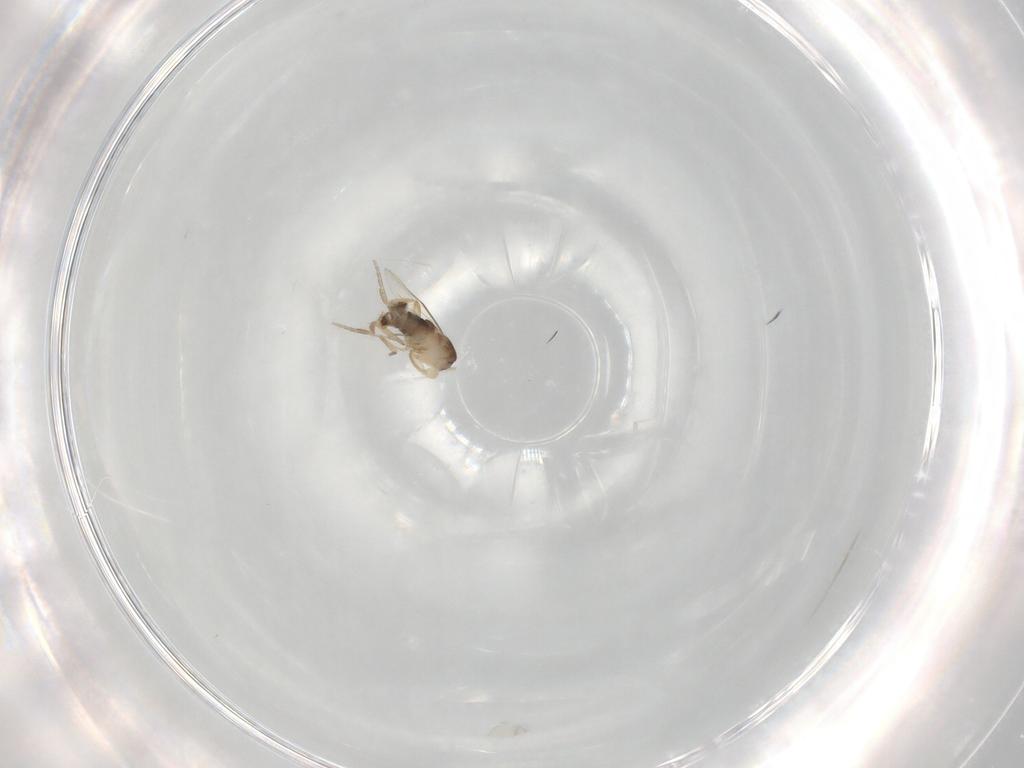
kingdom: Animalia
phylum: Arthropoda
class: Insecta
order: Diptera
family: Phoridae
